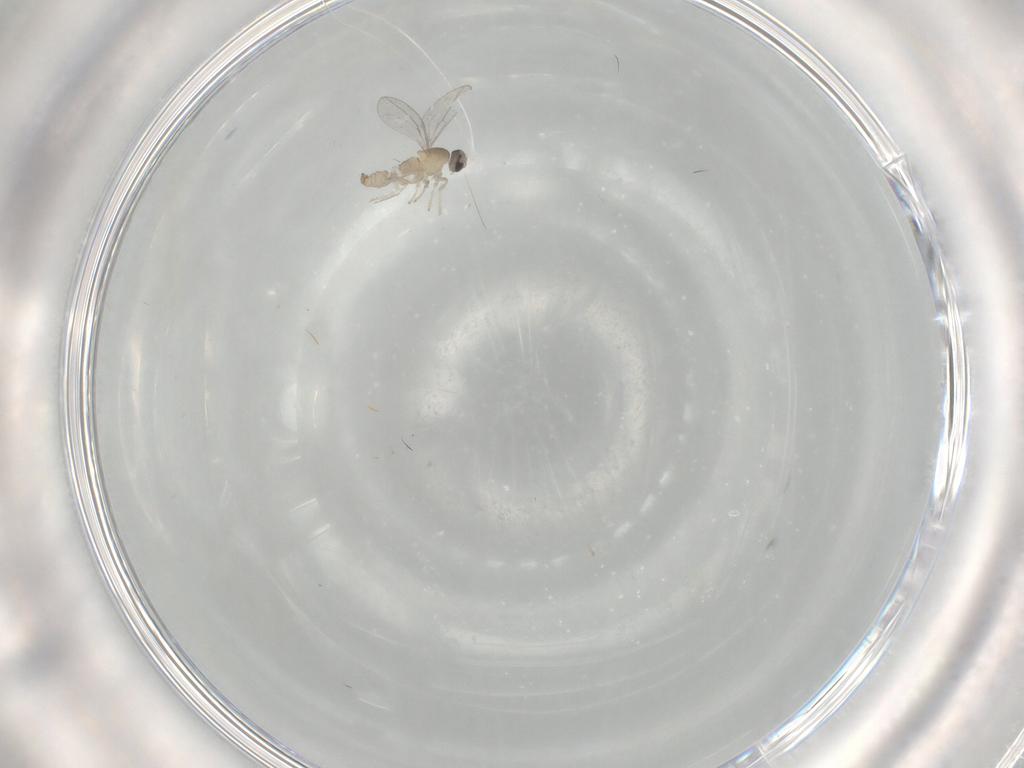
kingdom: Animalia
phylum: Arthropoda
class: Insecta
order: Diptera
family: Cecidomyiidae
